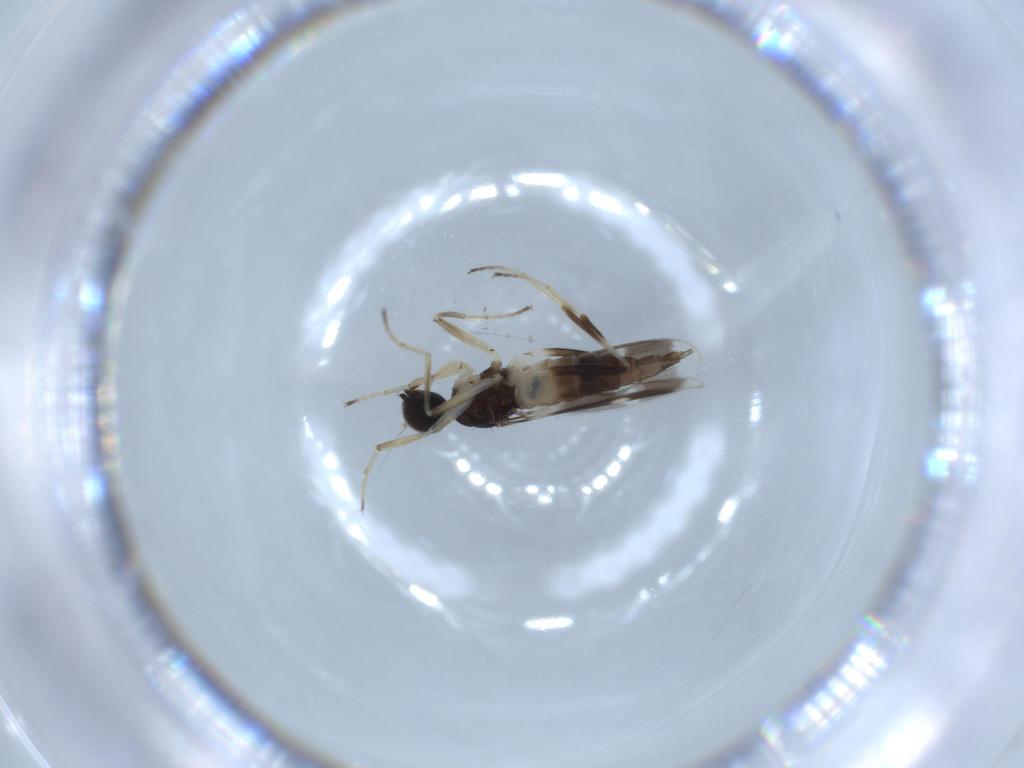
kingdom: Animalia
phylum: Arthropoda
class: Insecta
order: Diptera
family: Hybotidae
